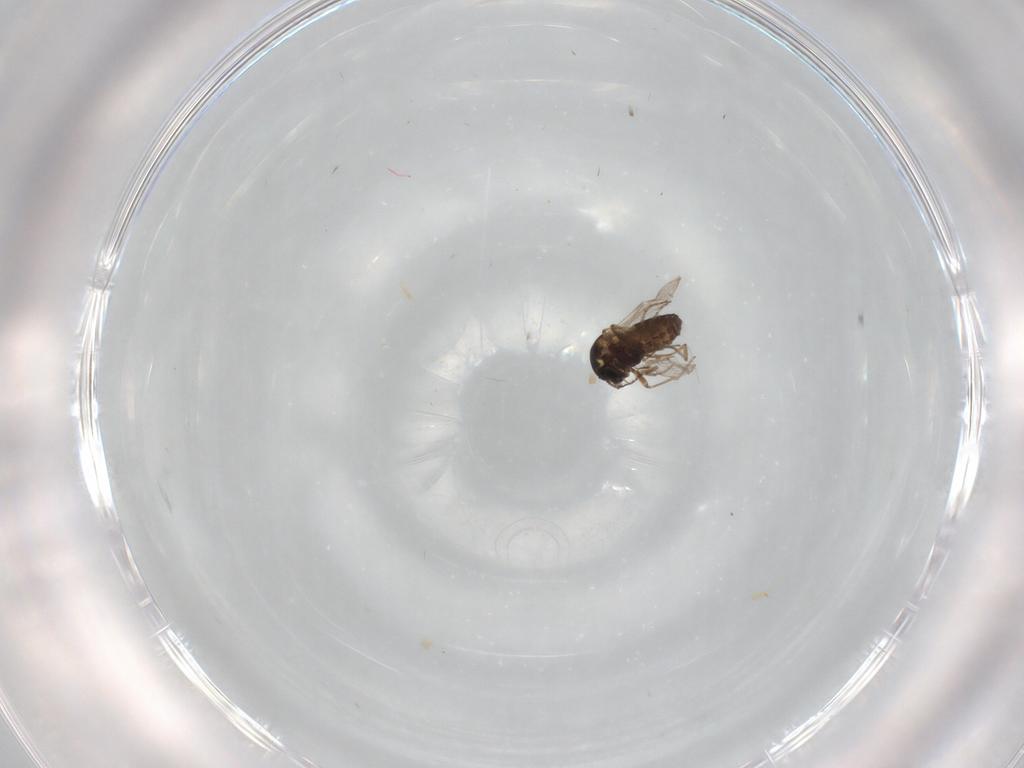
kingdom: Animalia
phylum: Arthropoda
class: Insecta
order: Diptera
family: Ceratopogonidae
